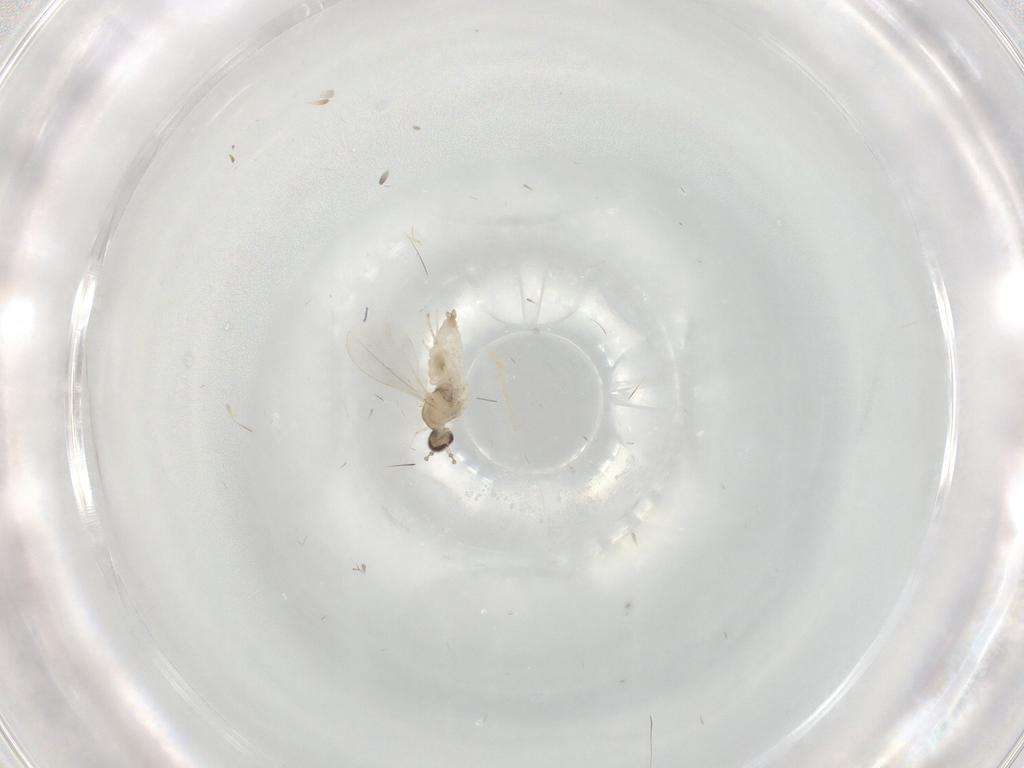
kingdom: Animalia
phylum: Arthropoda
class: Insecta
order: Diptera
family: Cecidomyiidae
